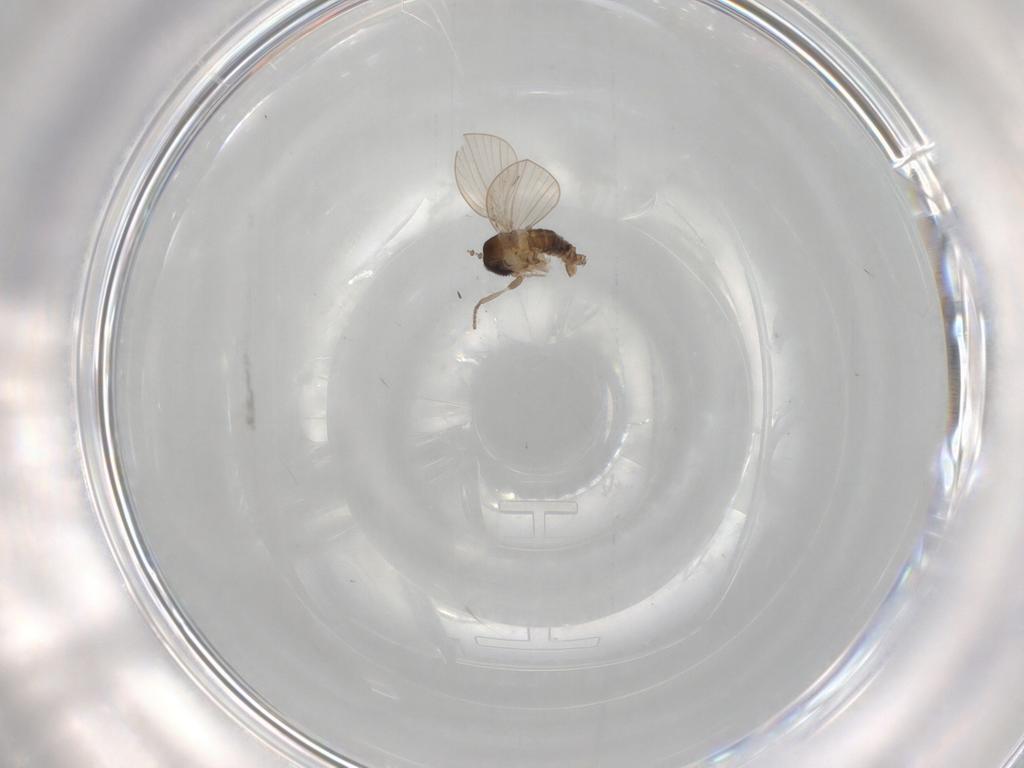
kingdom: Animalia
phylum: Arthropoda
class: Insecta
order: Diptera
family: Psychodidae
